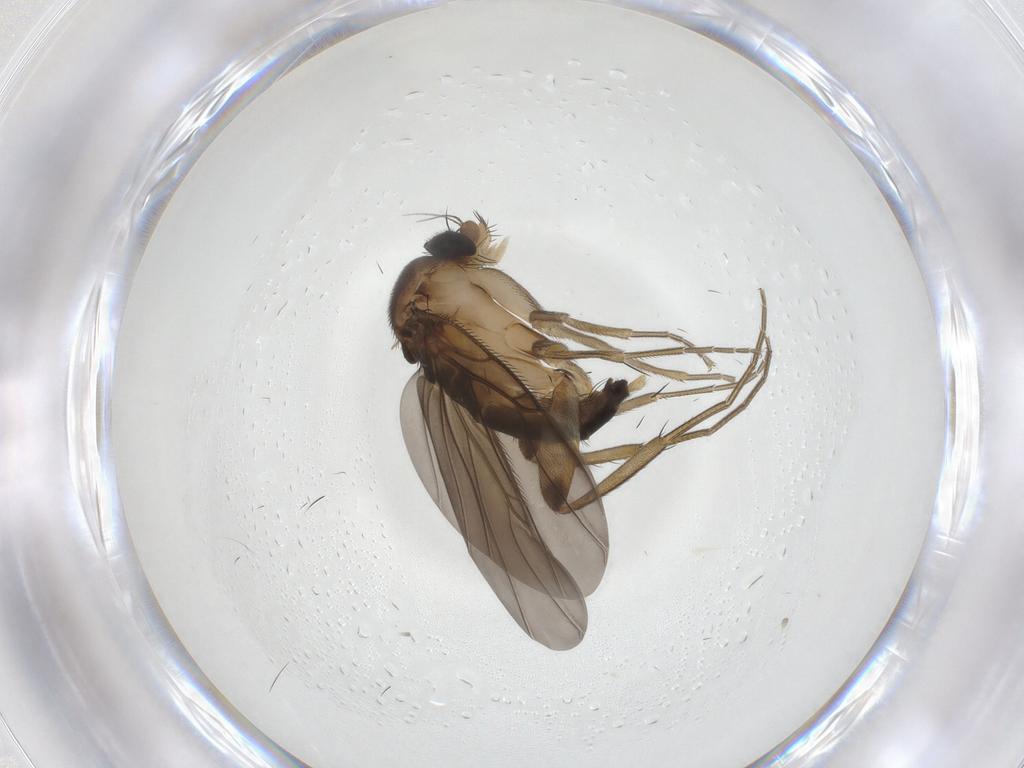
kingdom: Animalia
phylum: Arthropoda
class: Insecta
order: Diptera
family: Phoridae
